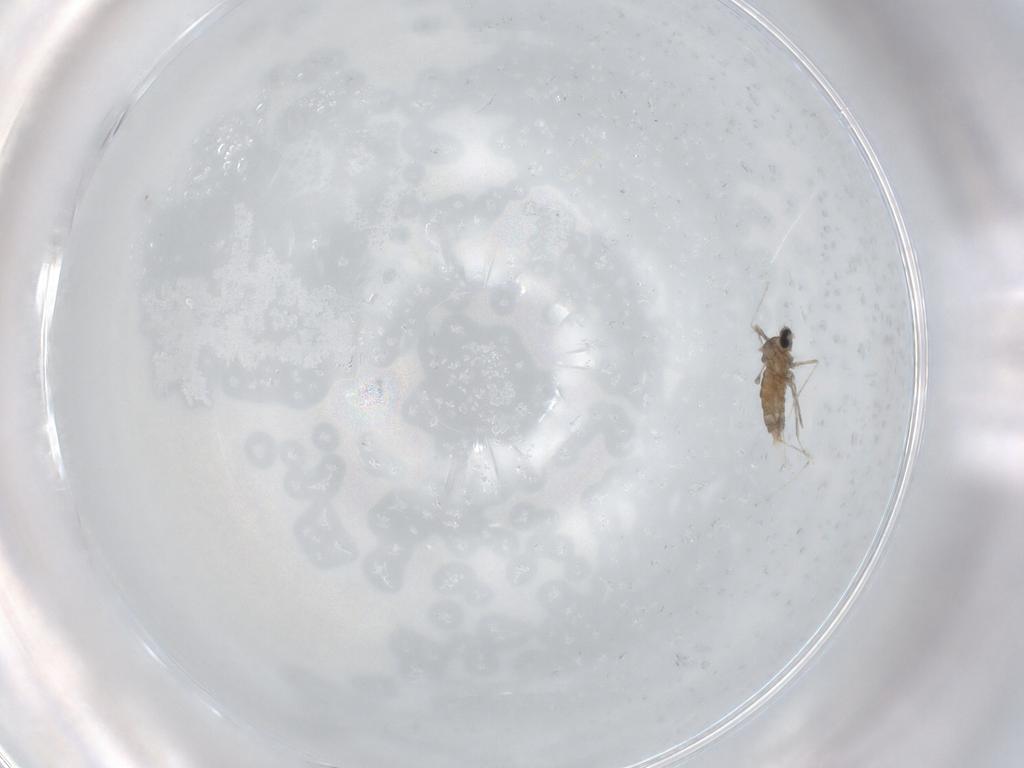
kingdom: Animalia
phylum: Arthropoda
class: Insecta
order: Diptera
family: Cecidomyiidae
